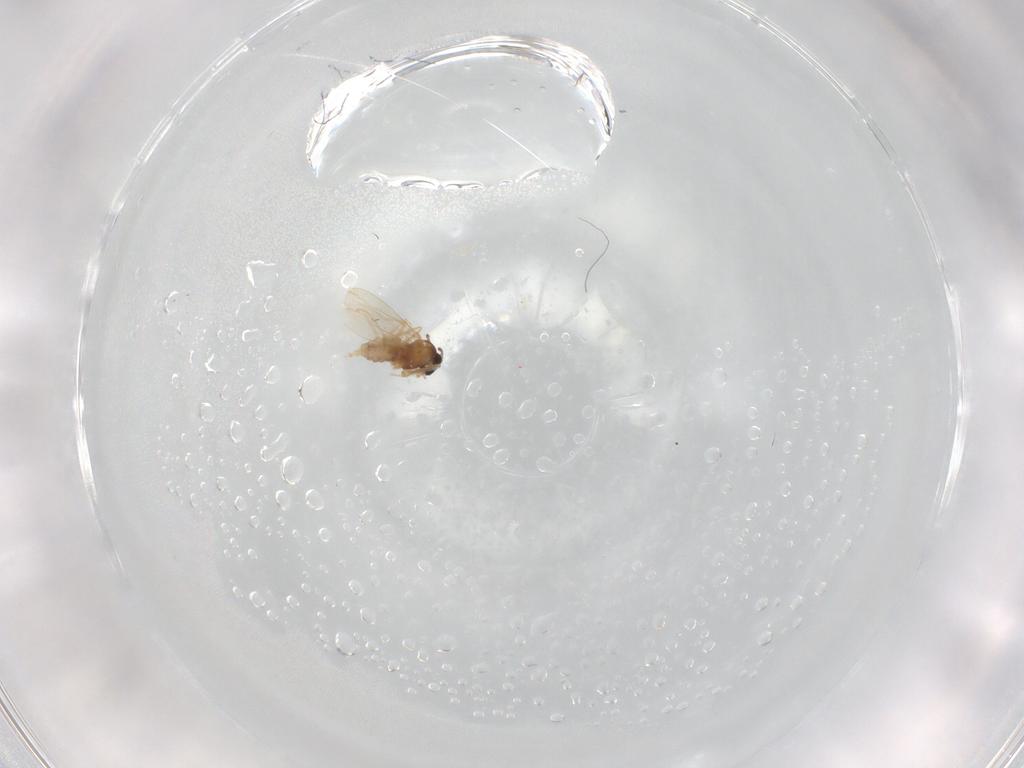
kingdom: Animalia
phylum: Arthropoda
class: Insecta
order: Diptera
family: Cecidomyiidae
